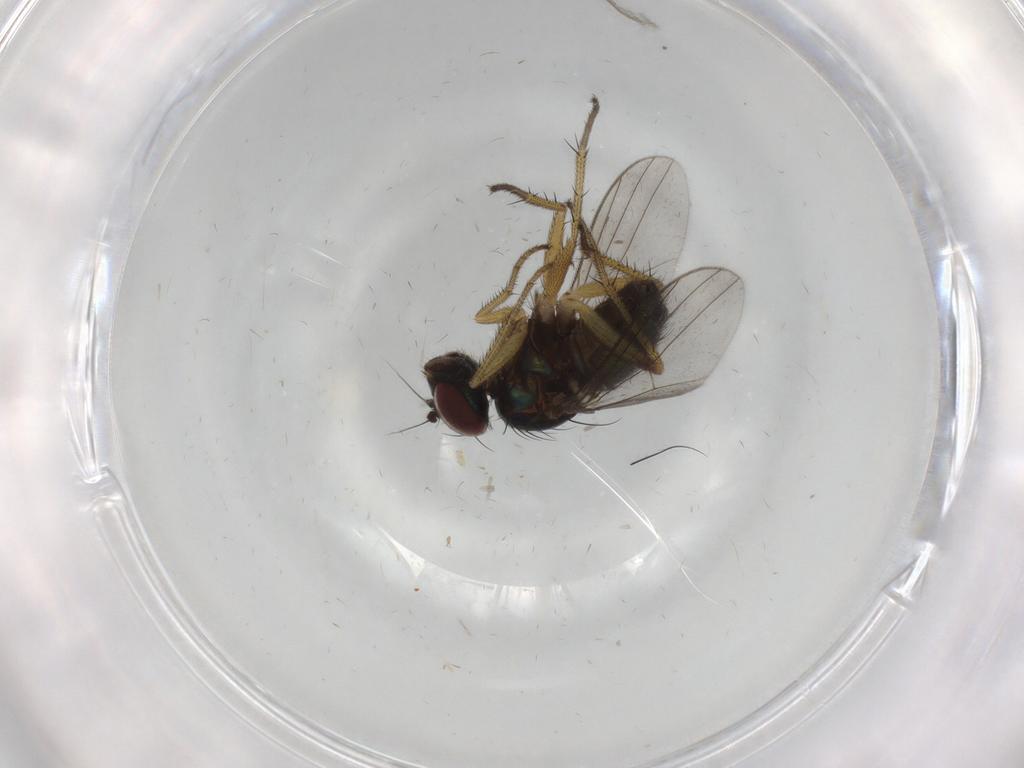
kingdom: Animalia
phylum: Arthropoda
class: Insecta
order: Diptera
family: Dolichopodidae
